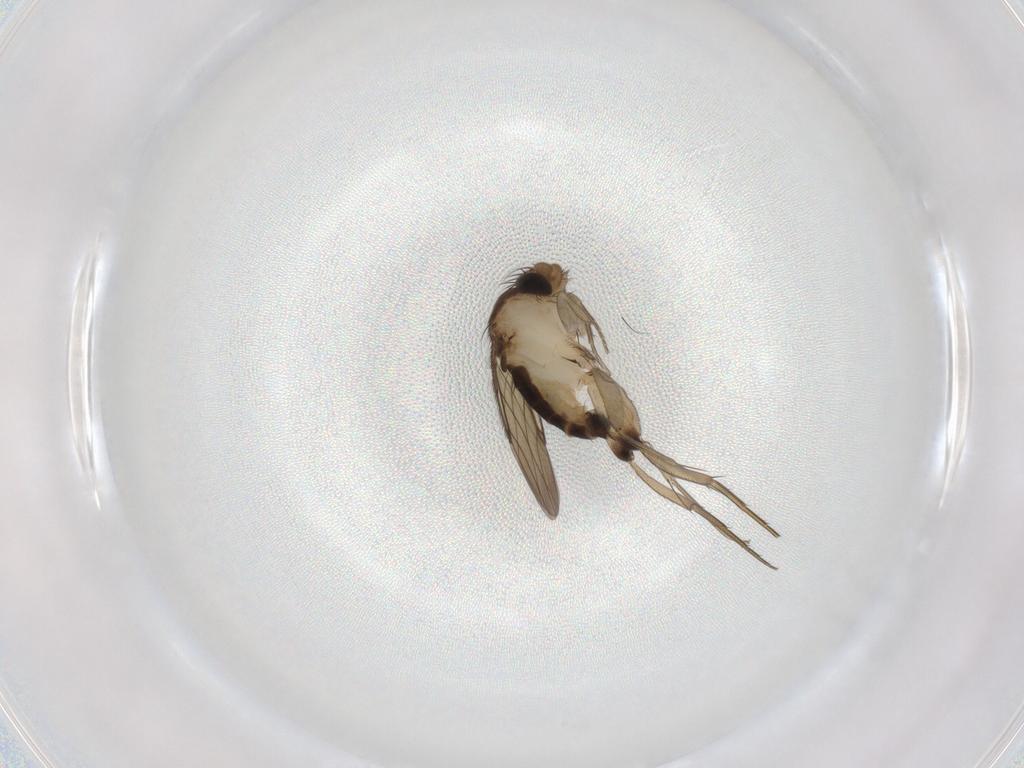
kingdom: Animalia
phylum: Arthropoda
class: Insecta
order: Diptera
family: Phoridae
